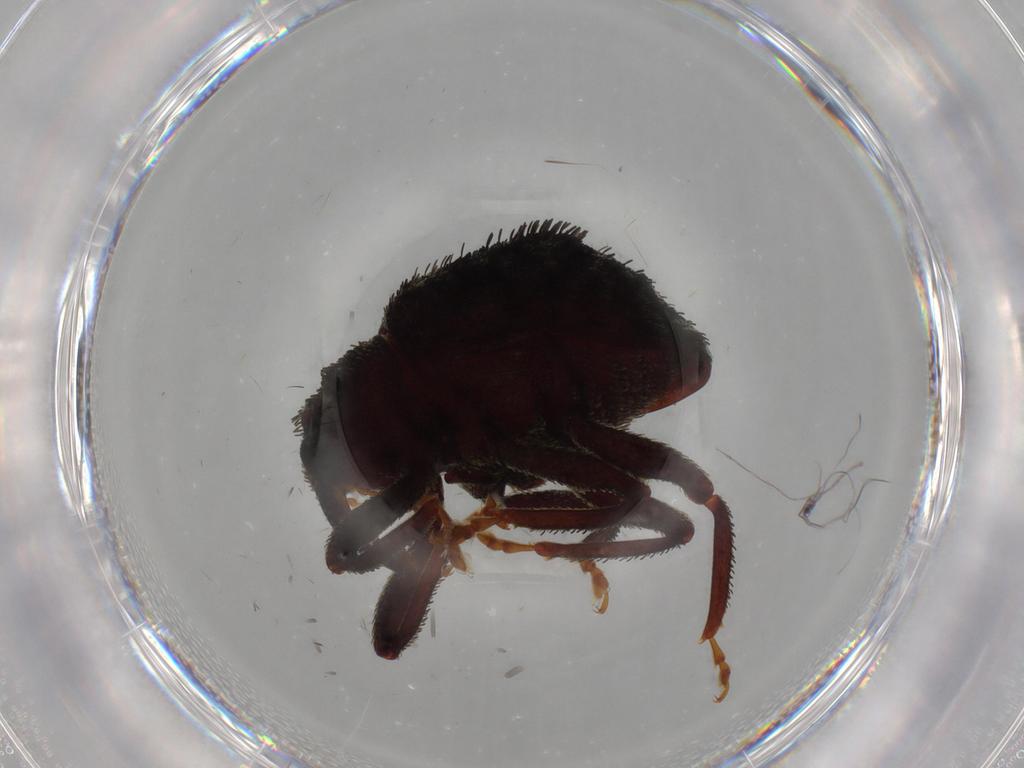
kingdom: Animalia
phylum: Arthropoda
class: Insecta
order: Coleoptera
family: Curculionidae
